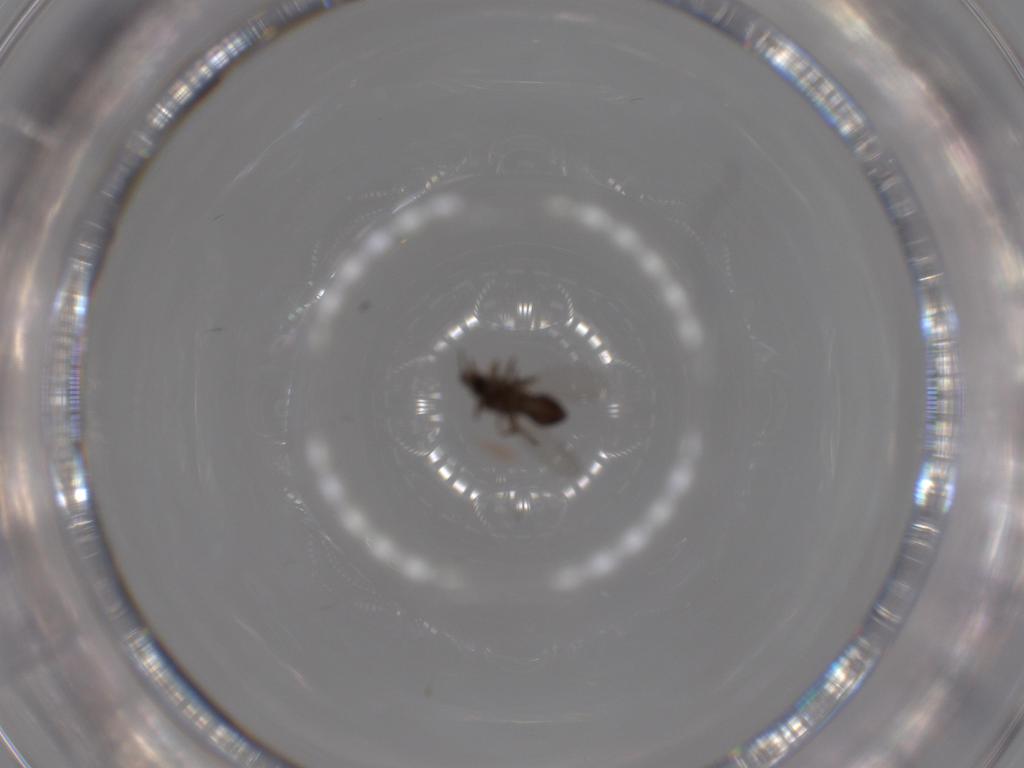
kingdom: Animalia
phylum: Arthropoda
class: Insecta
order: Diptera
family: Ceratopogonidae
